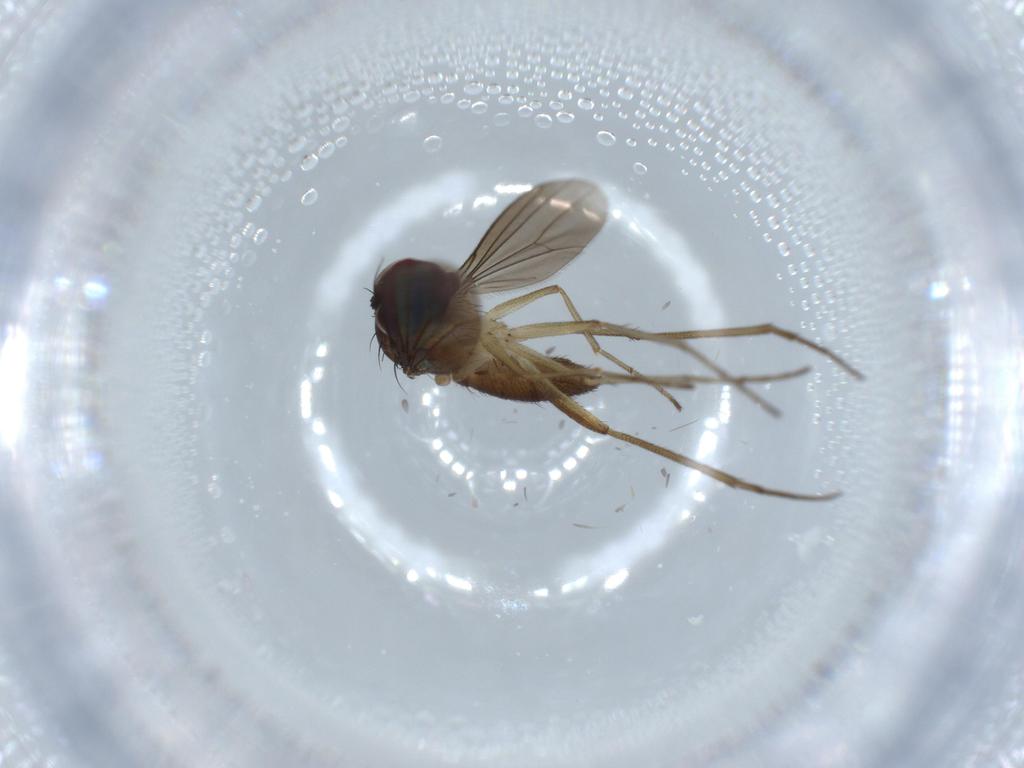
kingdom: Animalia
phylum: Arthropoda
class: Insecta
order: Diptera
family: Dolichopodidae
